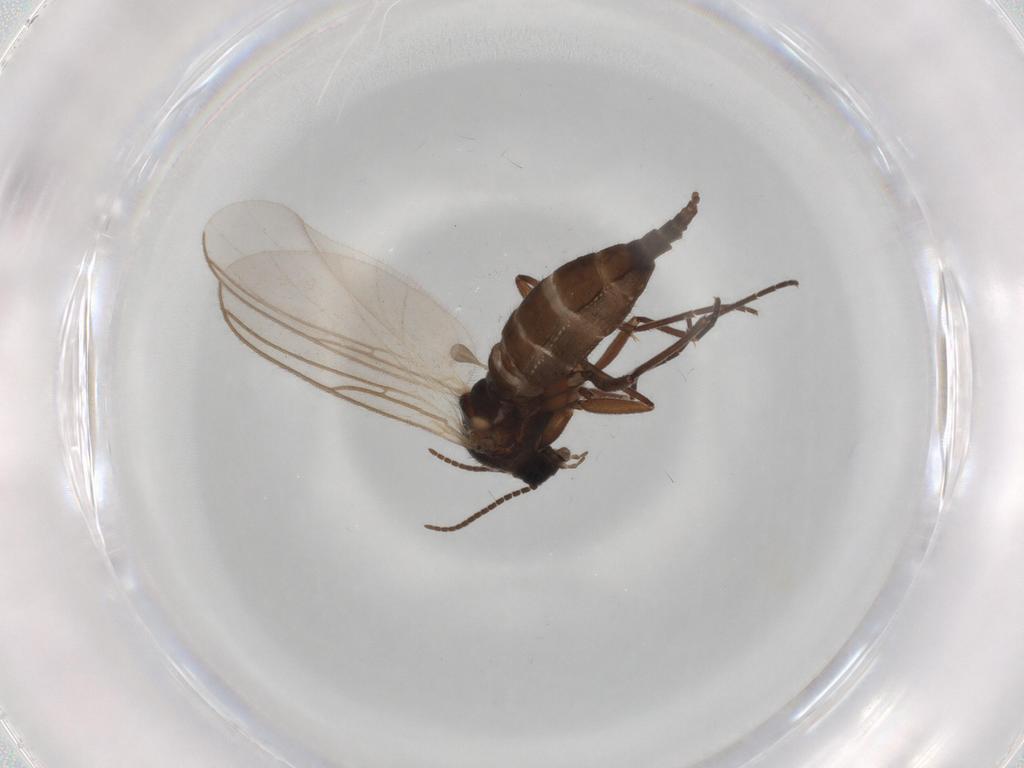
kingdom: Animalia
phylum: Arthropoda
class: Insecta
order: Diptera
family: Sciaridae
